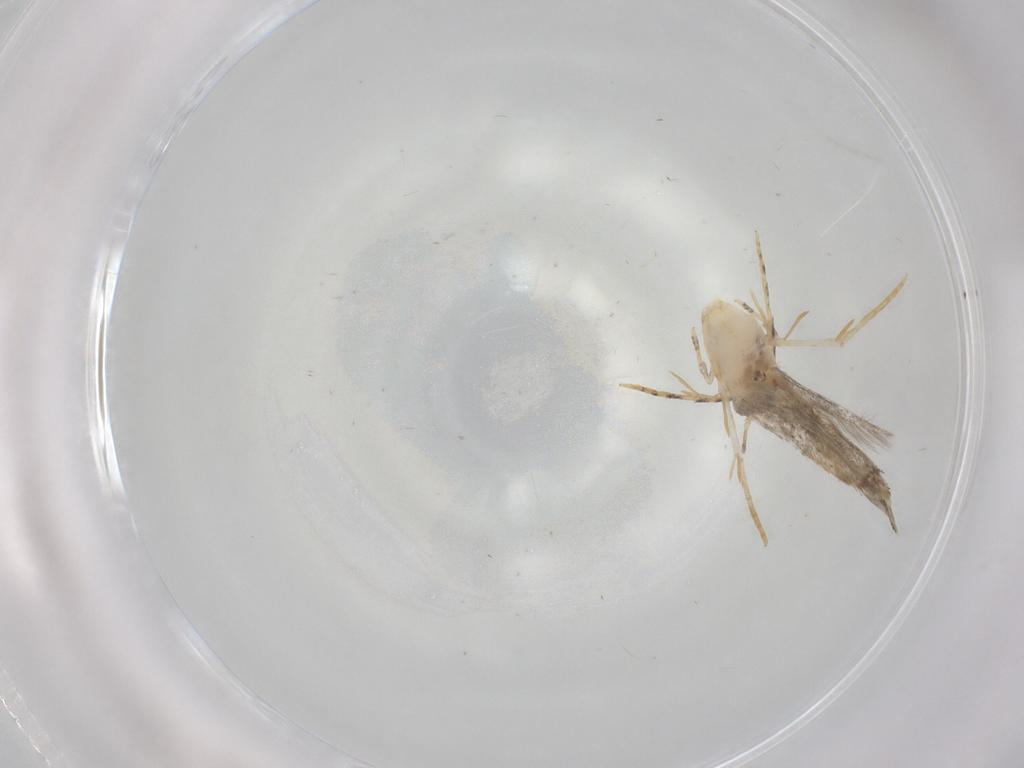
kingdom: Animalia
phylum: Arthropoda
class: Insecta
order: Lepidoptera
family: Tineidae
